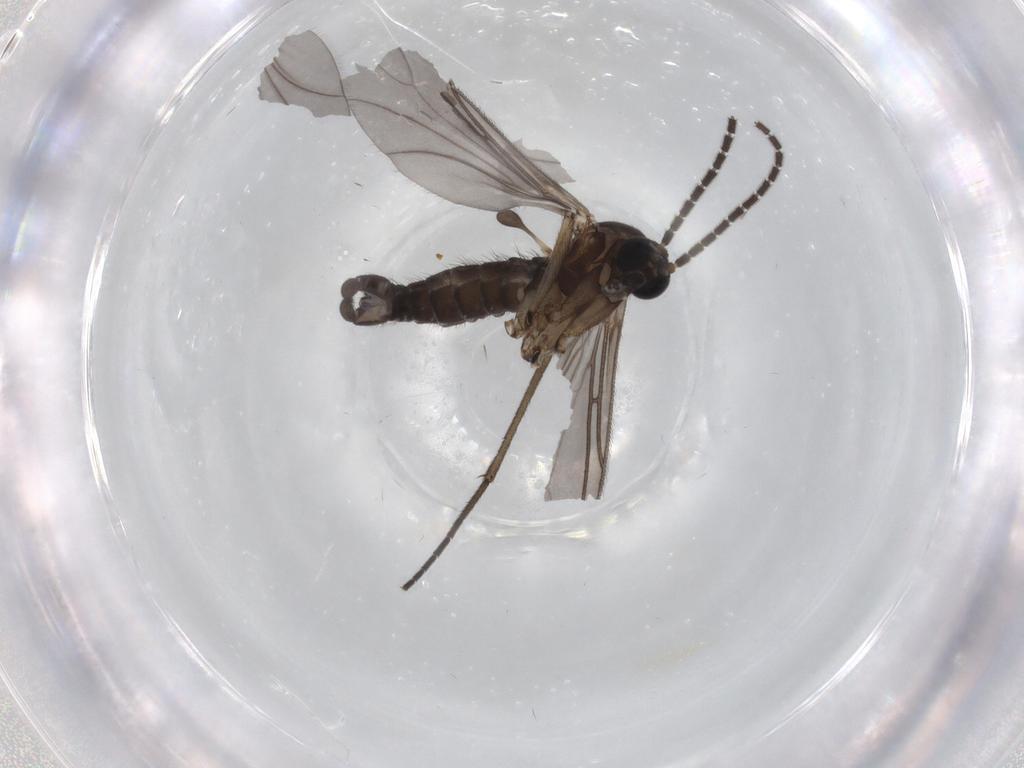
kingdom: Animalia
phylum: Arthropoda
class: Insecta
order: Diptera
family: Sciaridae
